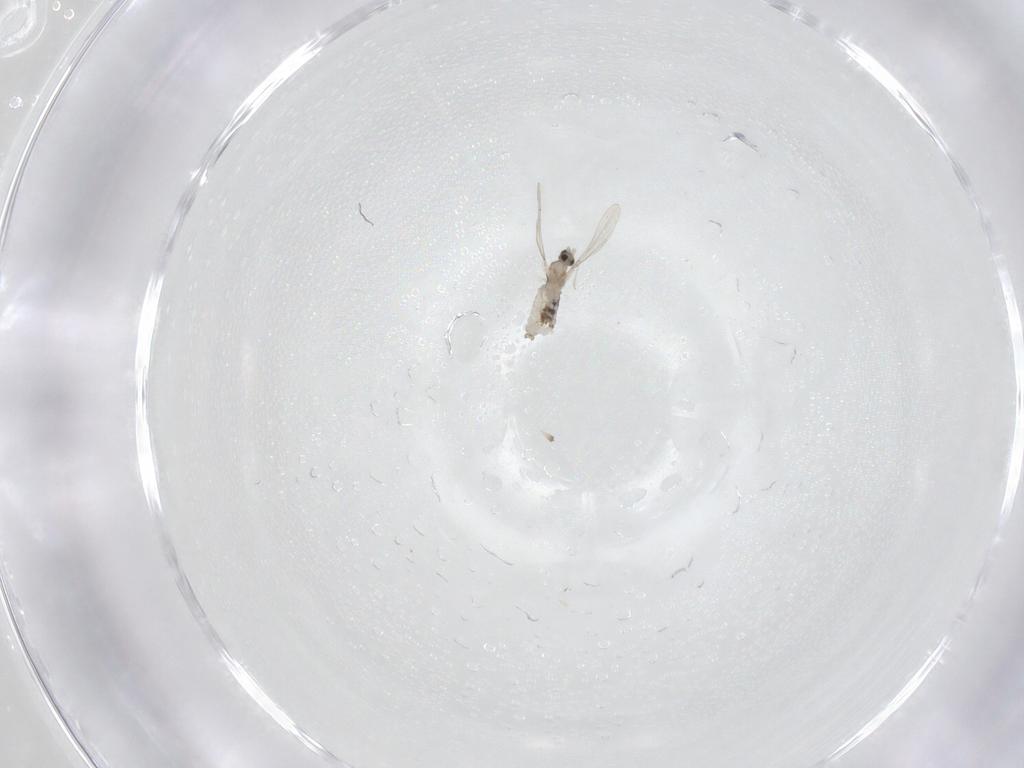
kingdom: Animalia
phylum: Arthropoda
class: Insecta
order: Diptera
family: Cecidomyiidae
